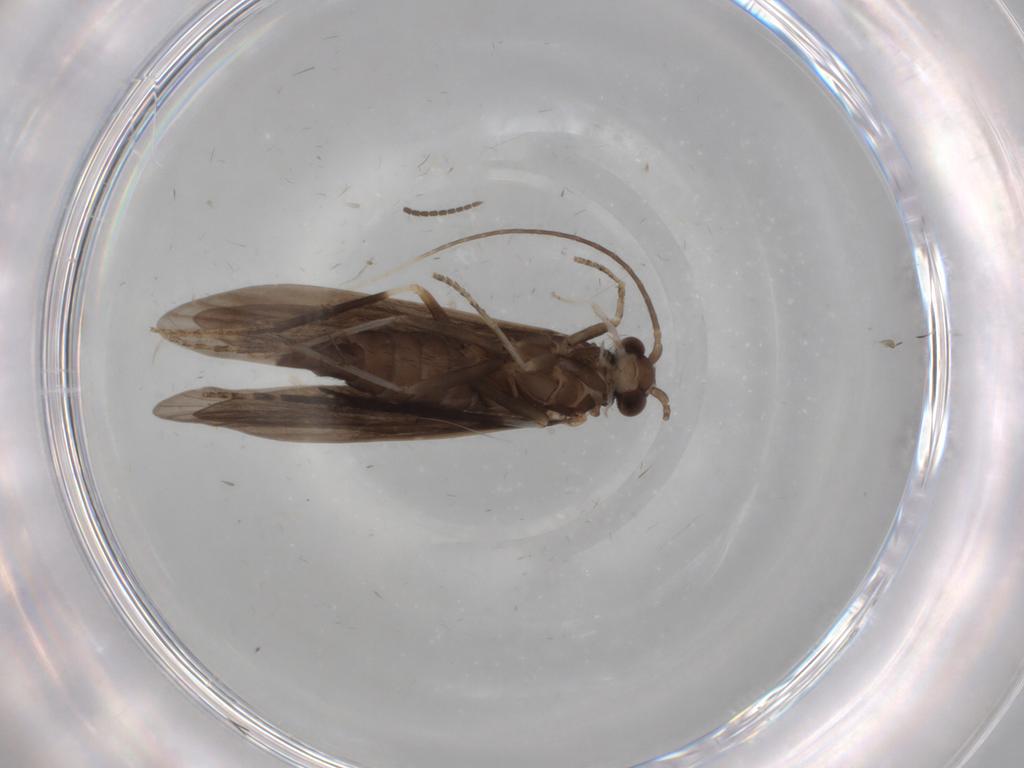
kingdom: Animalia
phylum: Arthropoda
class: Insecta
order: Trichoptera
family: Xiphocentronidae
